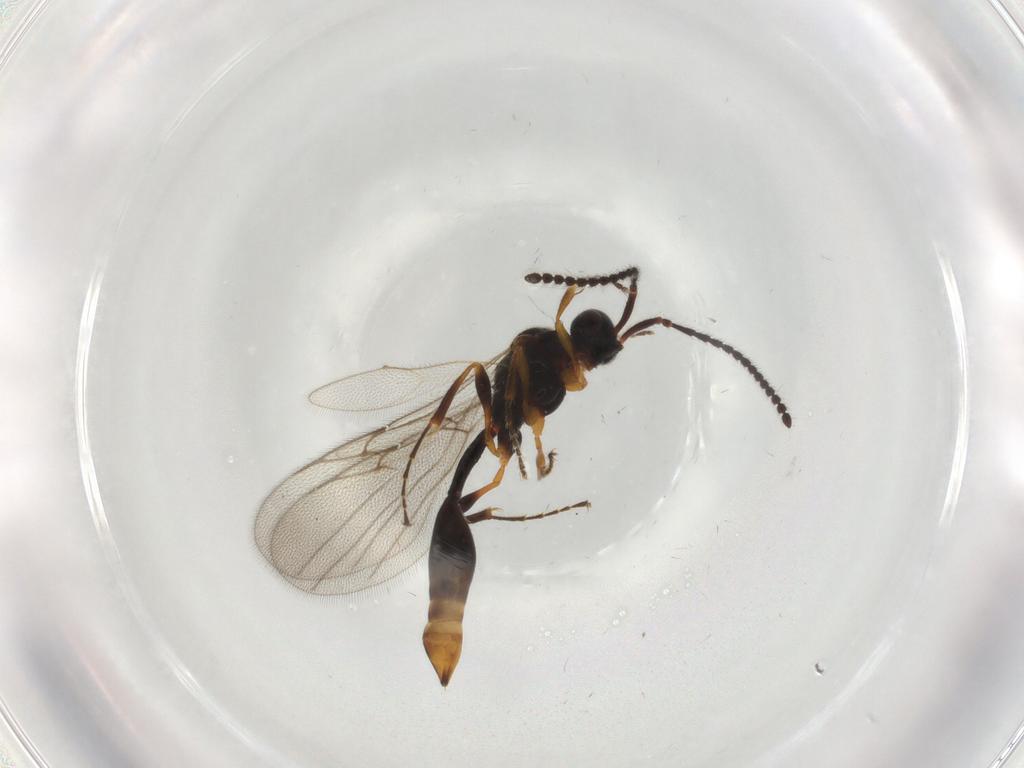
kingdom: Animalia
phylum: Arthropoda
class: Insecta
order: Hymenoptera
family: Diapriidae
